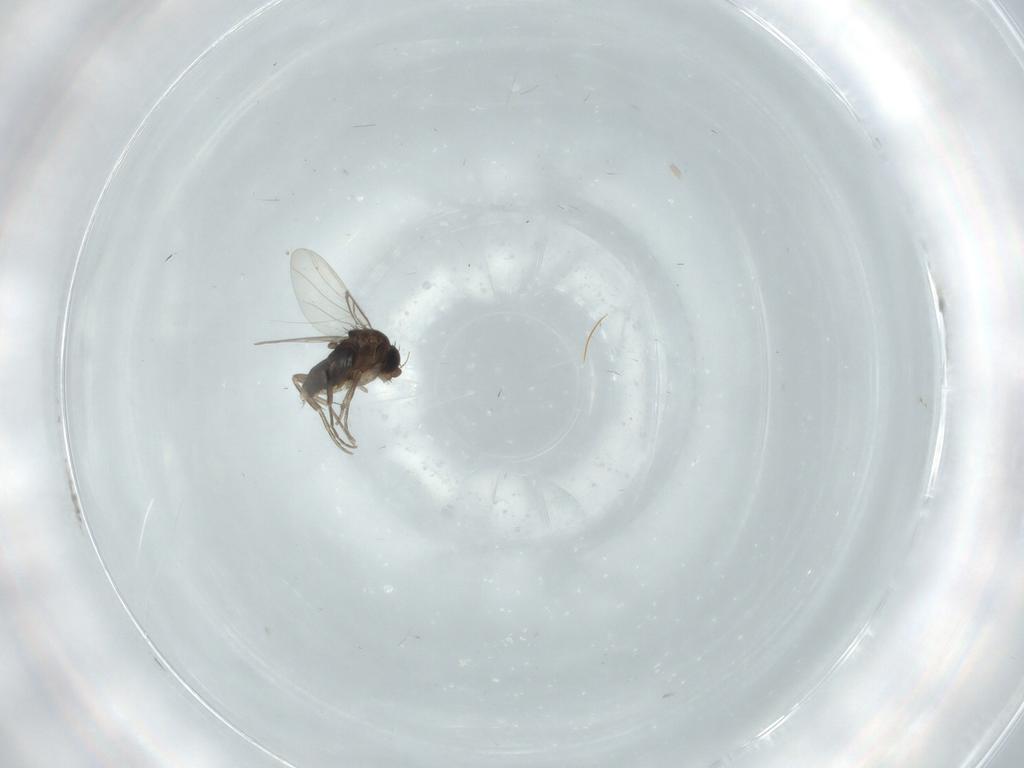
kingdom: Animalia
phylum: Arthropoda
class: Insecta
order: Diptera
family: Phoridae
